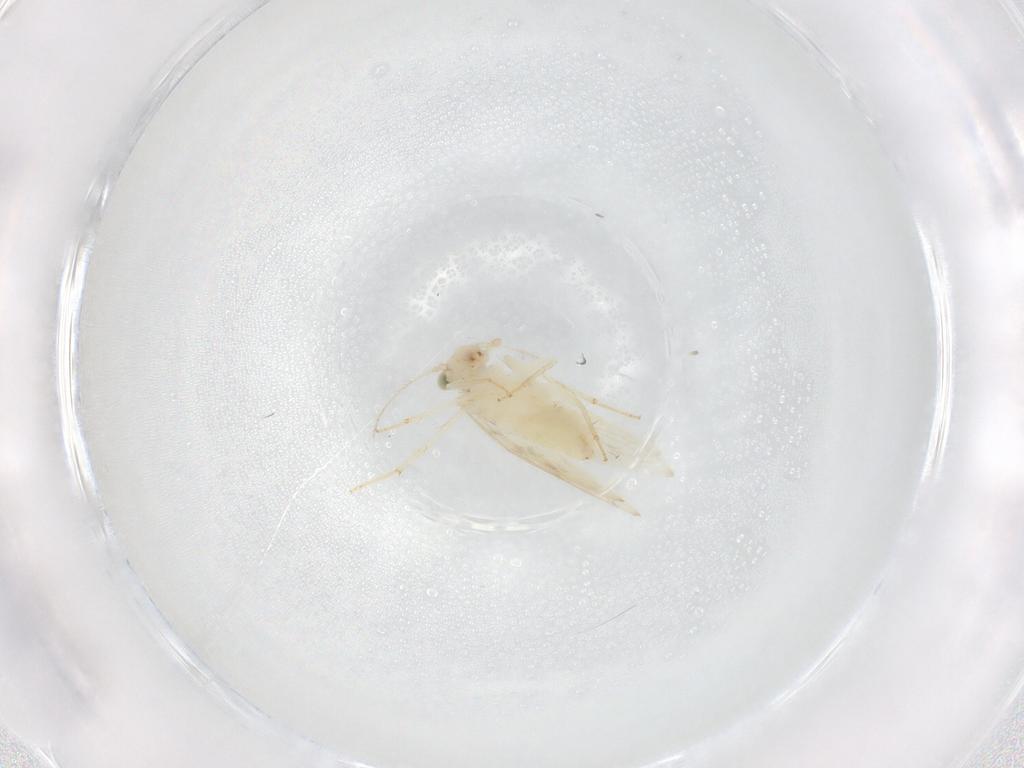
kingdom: Animalia
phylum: Arthropoda
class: Insecta
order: Psocodea
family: Lepidopsocidae
